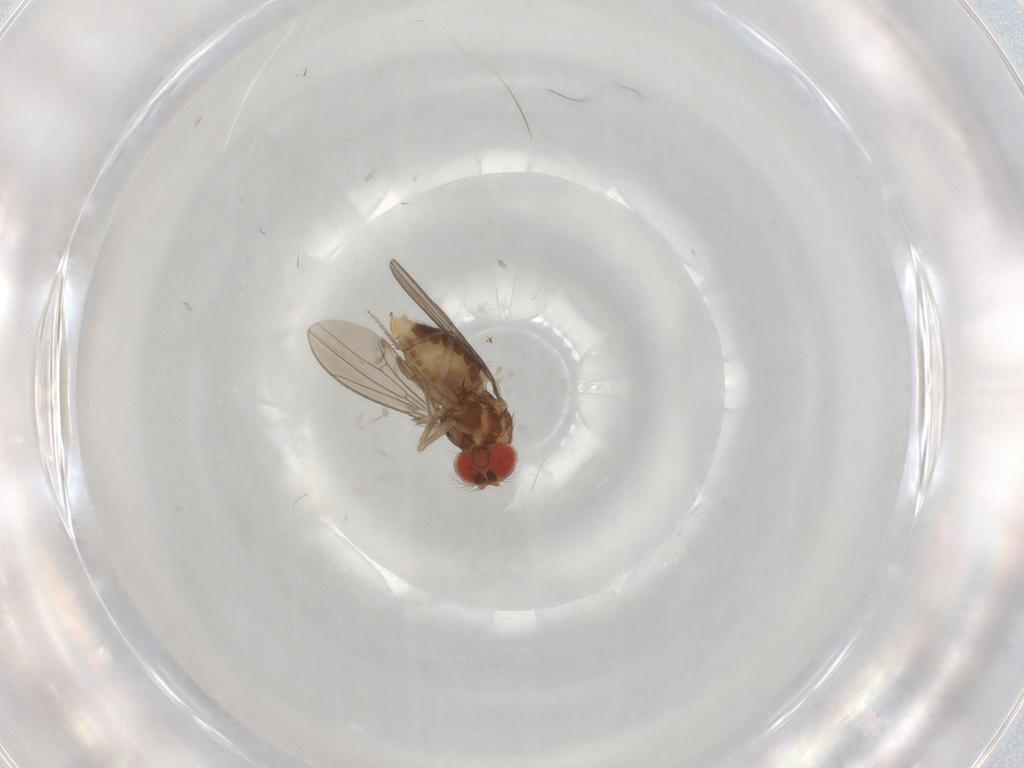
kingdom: Animalia
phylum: Arthropoda
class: Insecta
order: Diptera
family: Drosophilidae
